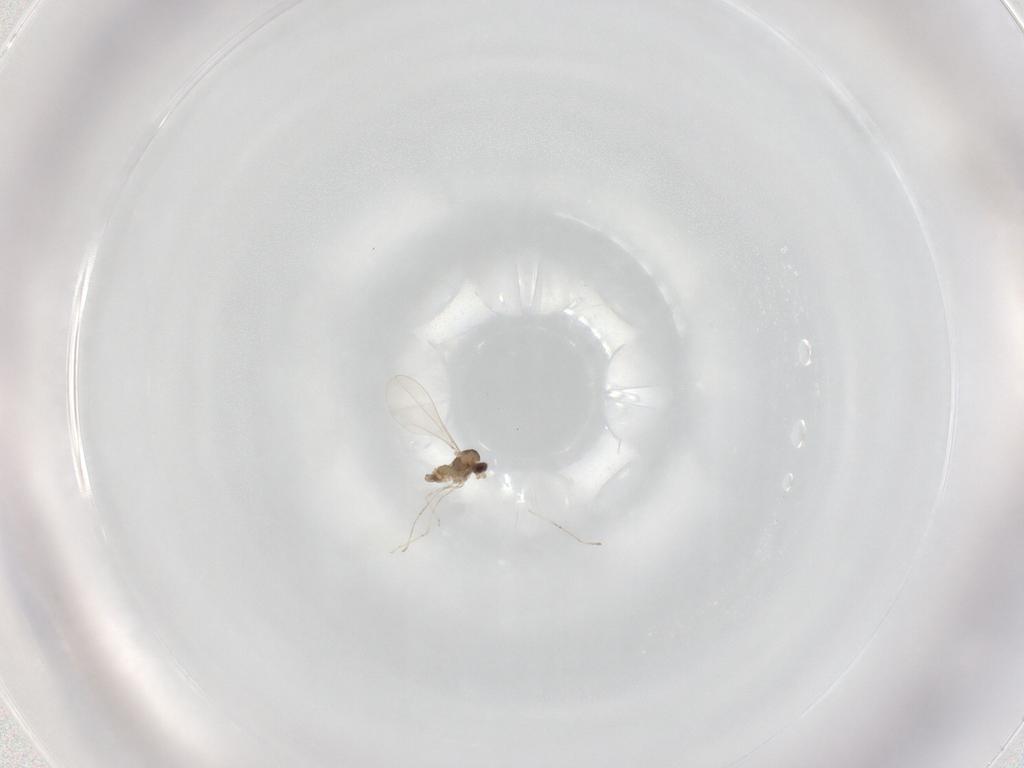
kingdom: Animalia
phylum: Arthropoda
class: Insecta
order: Diptera
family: Cecidomyiidae
